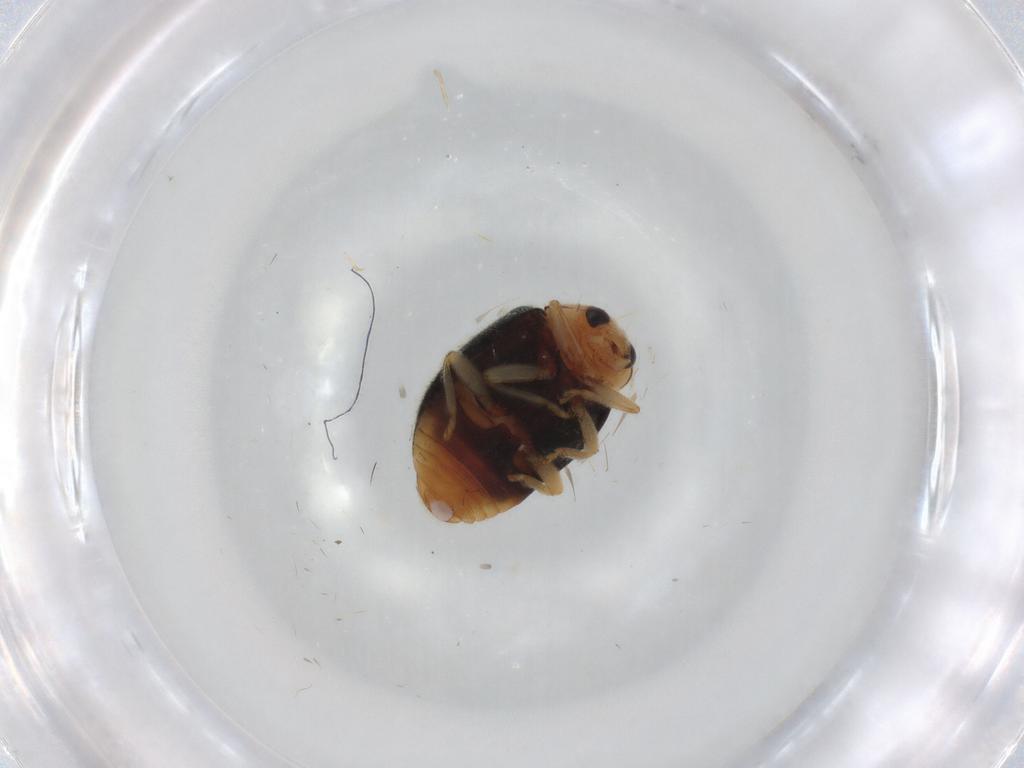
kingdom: Animalia
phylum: Arthropoda
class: Insecta
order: Coleoptera
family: Coccinellidae
